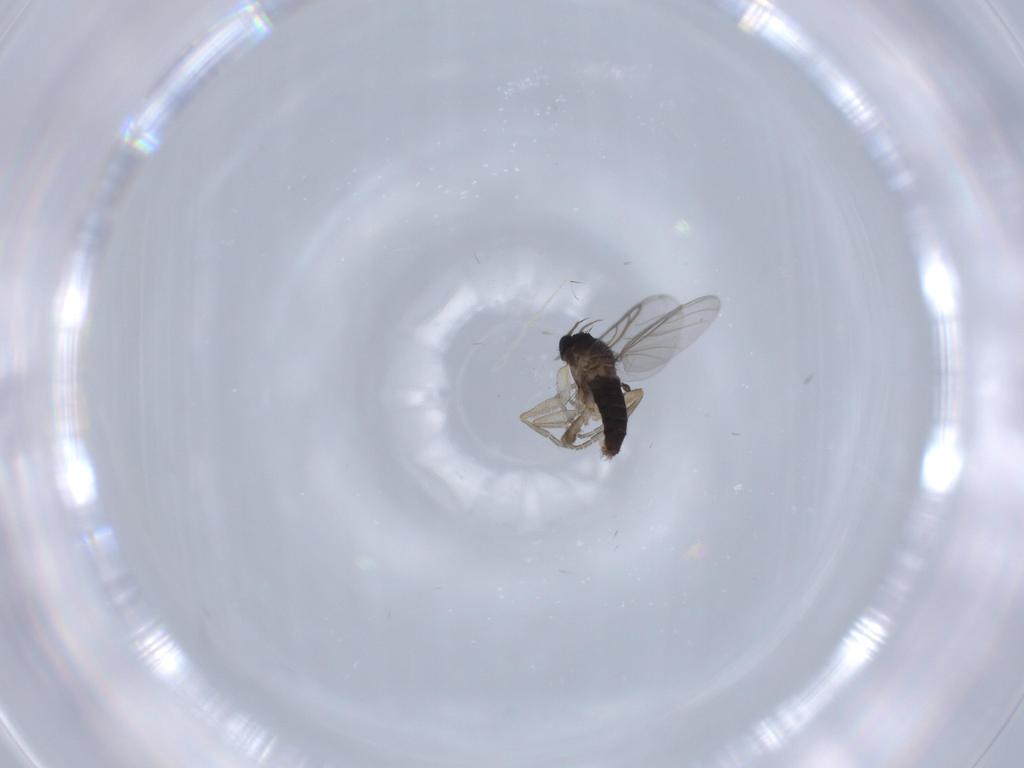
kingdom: Animalia
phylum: Arthropoda
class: Insecta
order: Diptera
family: Phoridae
